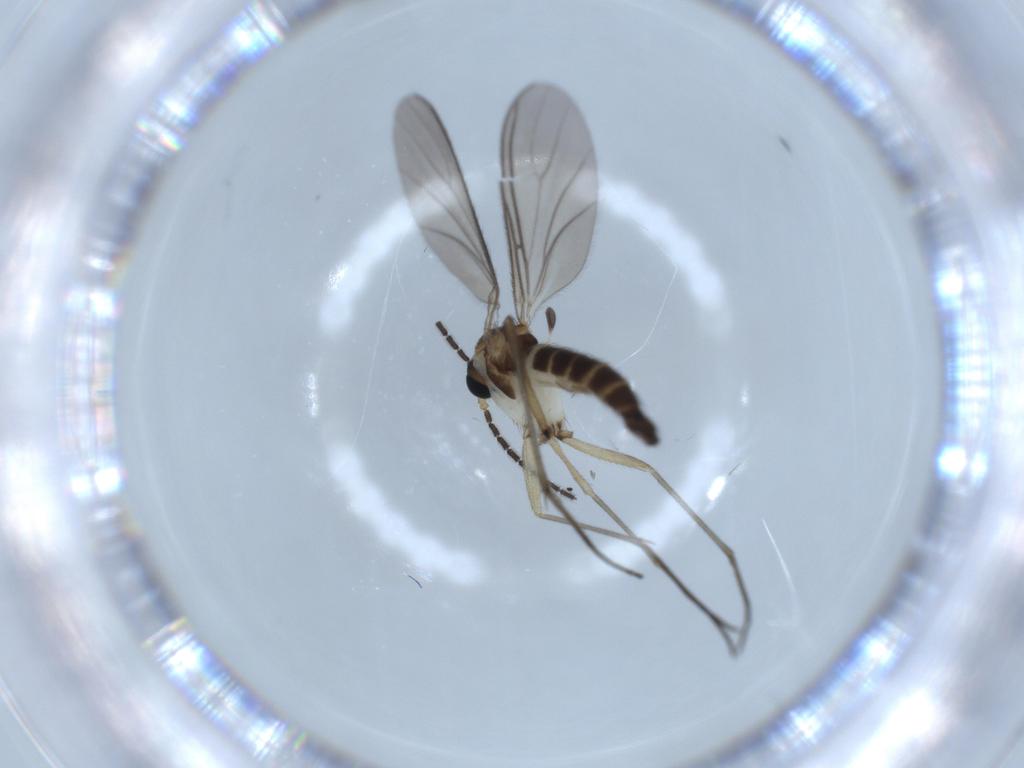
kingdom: Animalia
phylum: Arthropoda
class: Insecta
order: Diptera
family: Sciaridae
